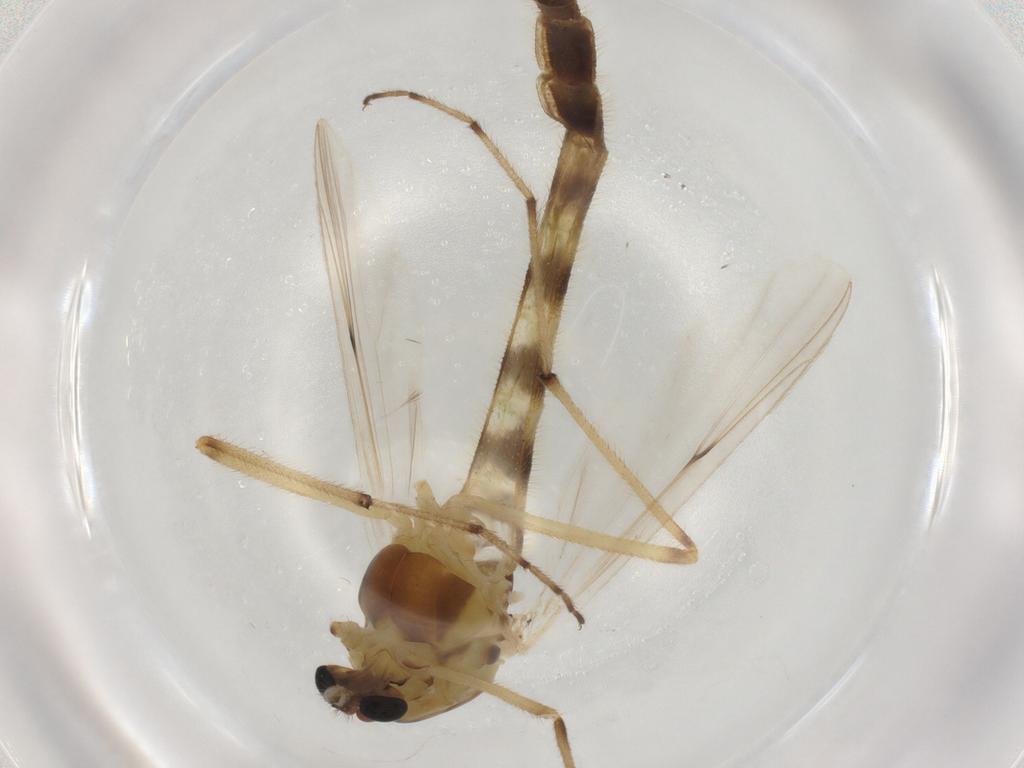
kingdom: Animalia
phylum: Arthropoda
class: Insecta
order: Diptera
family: Chironomidae
